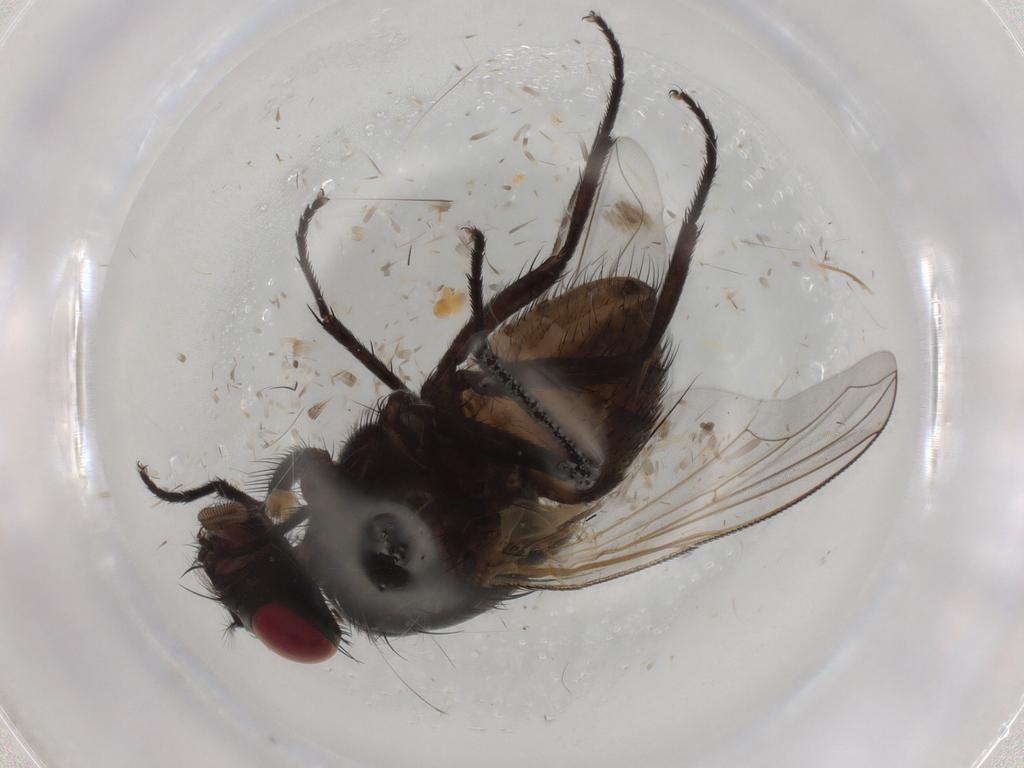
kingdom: Animalia
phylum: Arthropoda
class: Insecta
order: Diptera
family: Muscidae
